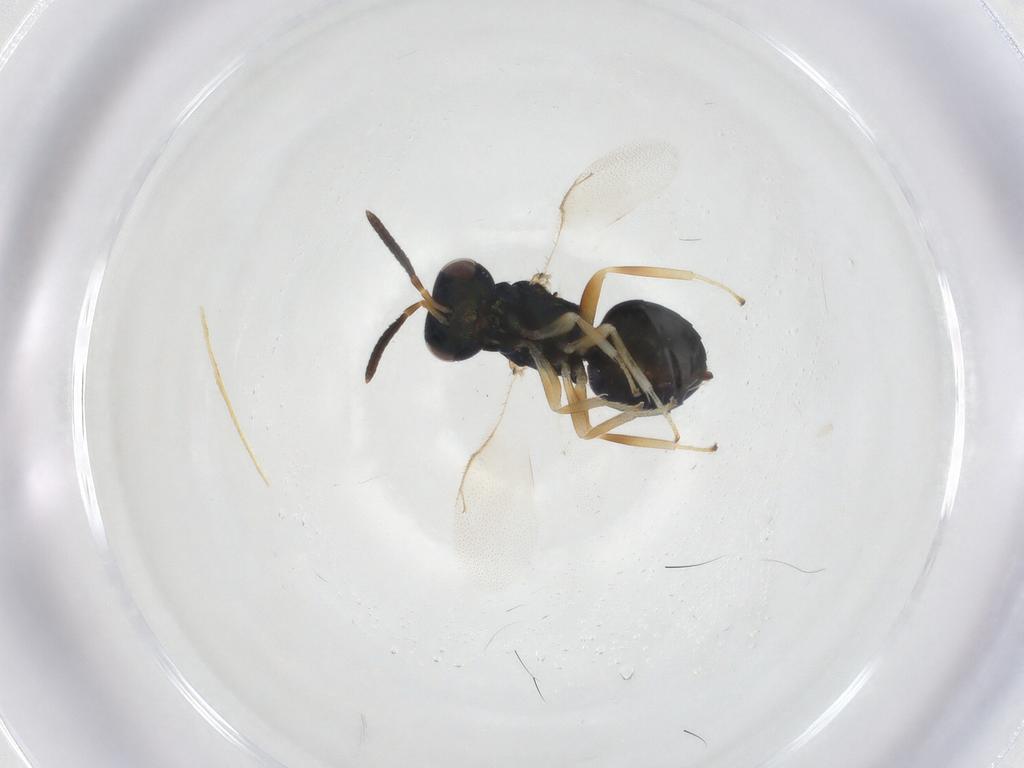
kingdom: Animalia
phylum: Arthropoda
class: Insecta
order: Hymenoptera
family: Pteromalidae
